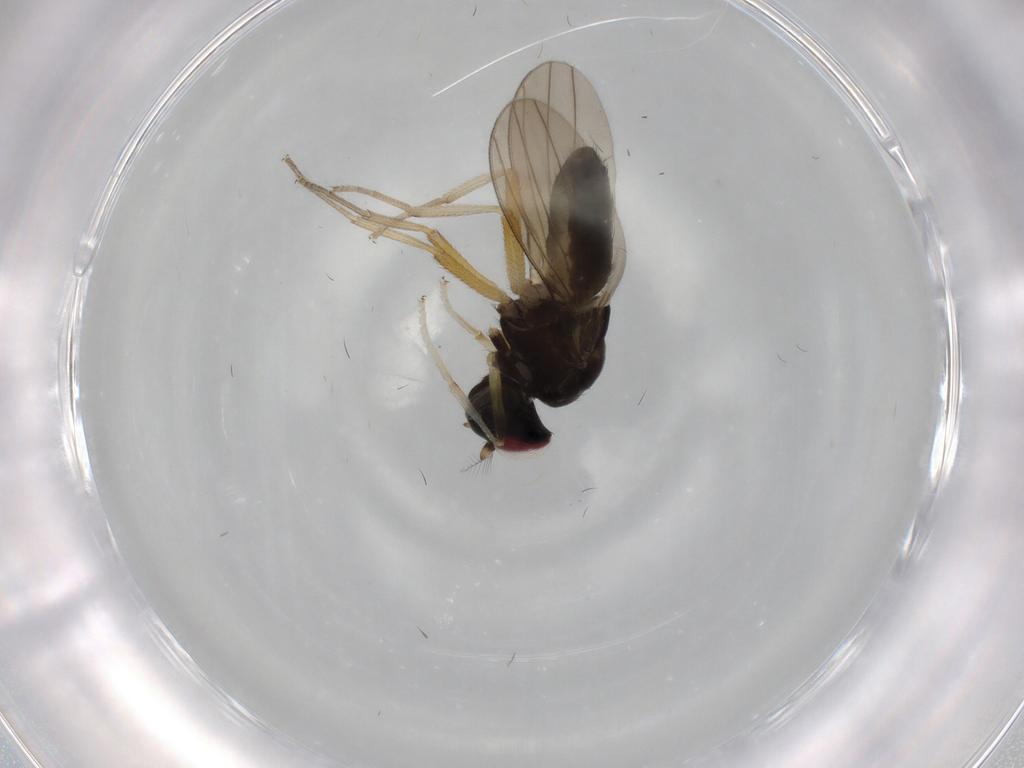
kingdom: Animalia
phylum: Arthropoda
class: Insecta
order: Diptera
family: Lauxaniidae
